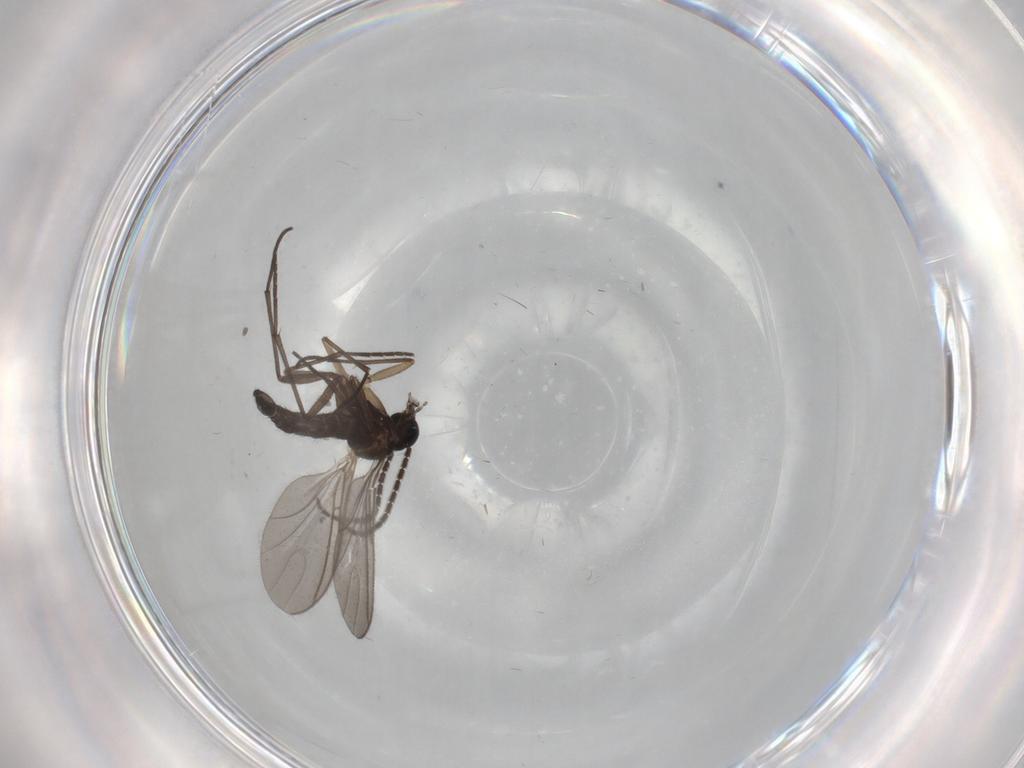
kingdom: Animalia
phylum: Arthropoda
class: Insecta
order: Diptera
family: Sciaridae
